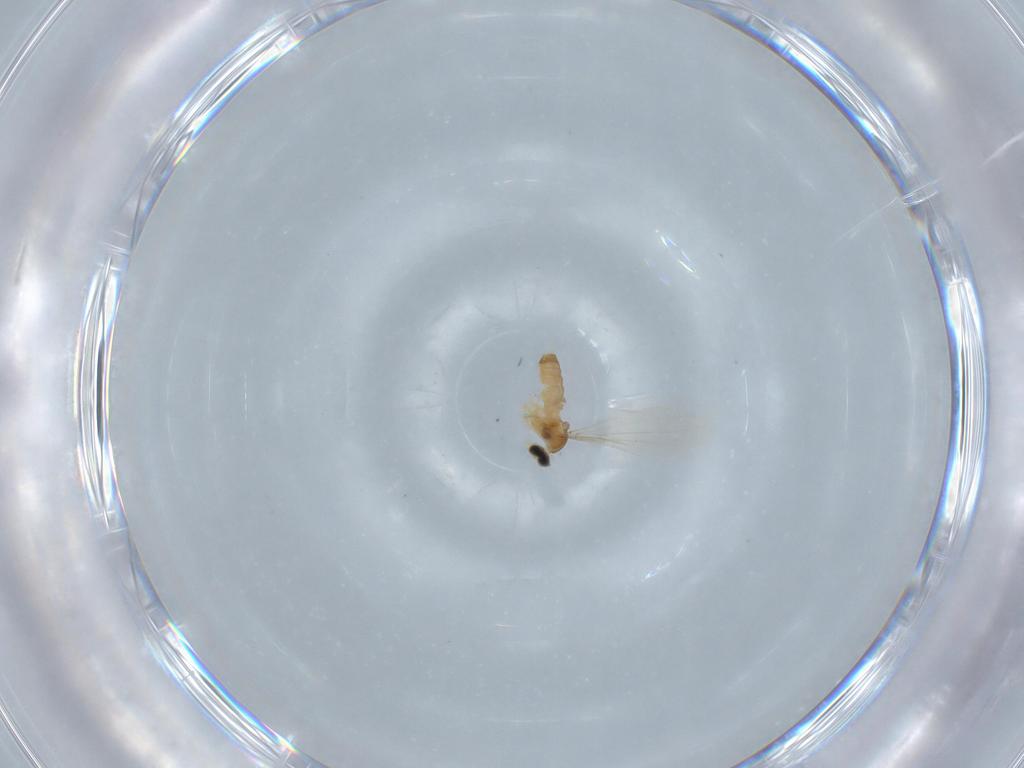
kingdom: Animalia
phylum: Arthropoda
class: Insecta
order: Diptera
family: Cecidomyiidae
